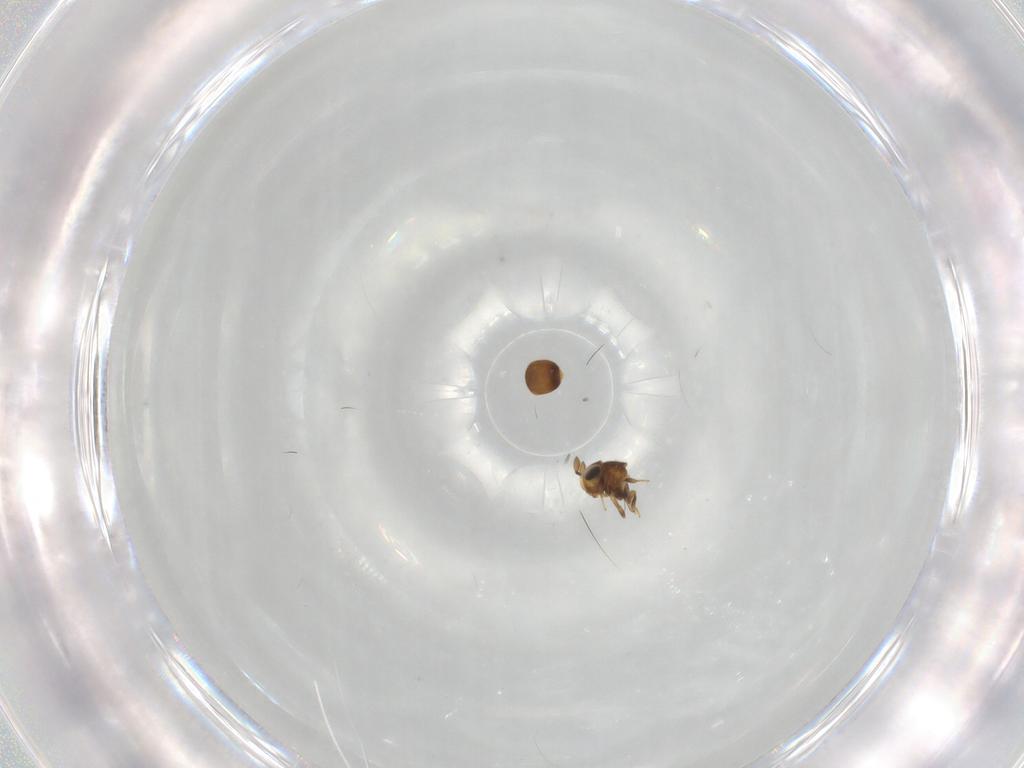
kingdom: Animalia
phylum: Arthropoda
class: Insecta
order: Hymenoptera
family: Scelionidae
